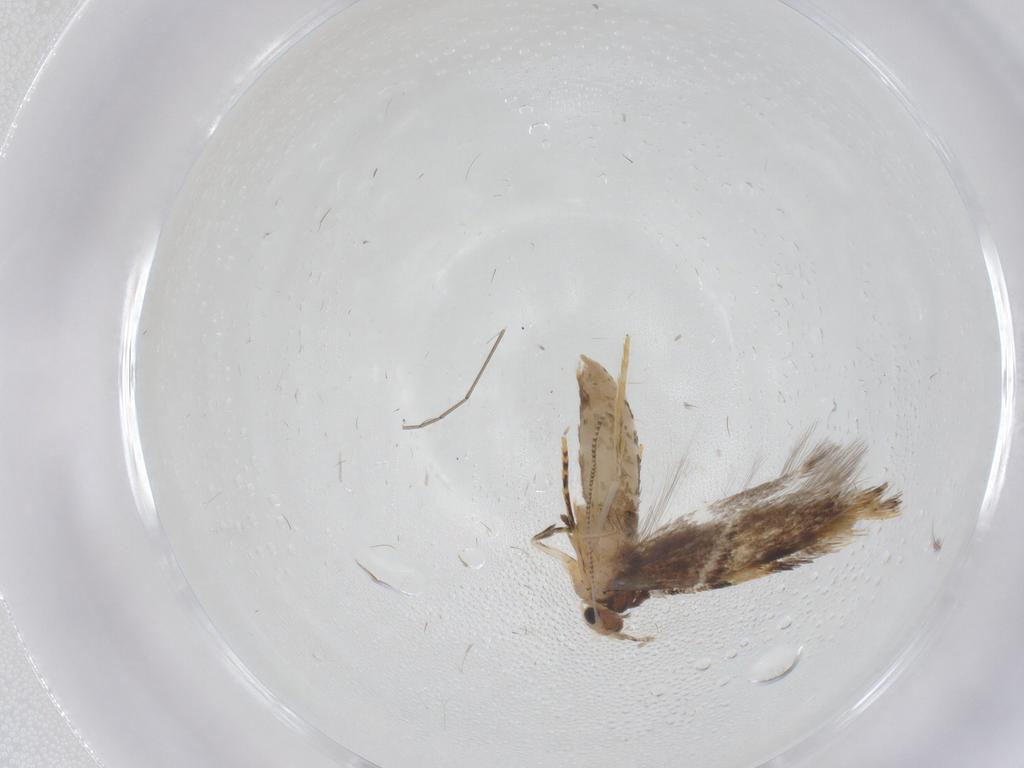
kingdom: Animalia
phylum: Arthropoda
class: Insecta
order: Lepidoptera
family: Tineidae
